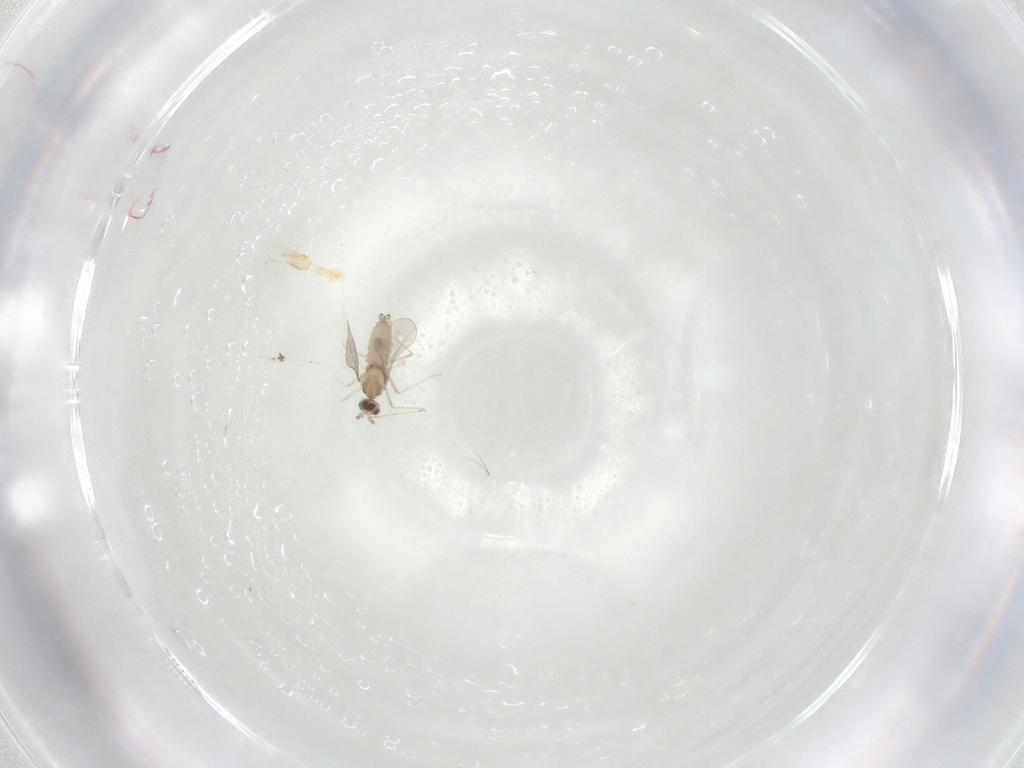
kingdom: Animalia
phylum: Arthropoda
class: Insecta
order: Diptera
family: Cecidomyiidae
